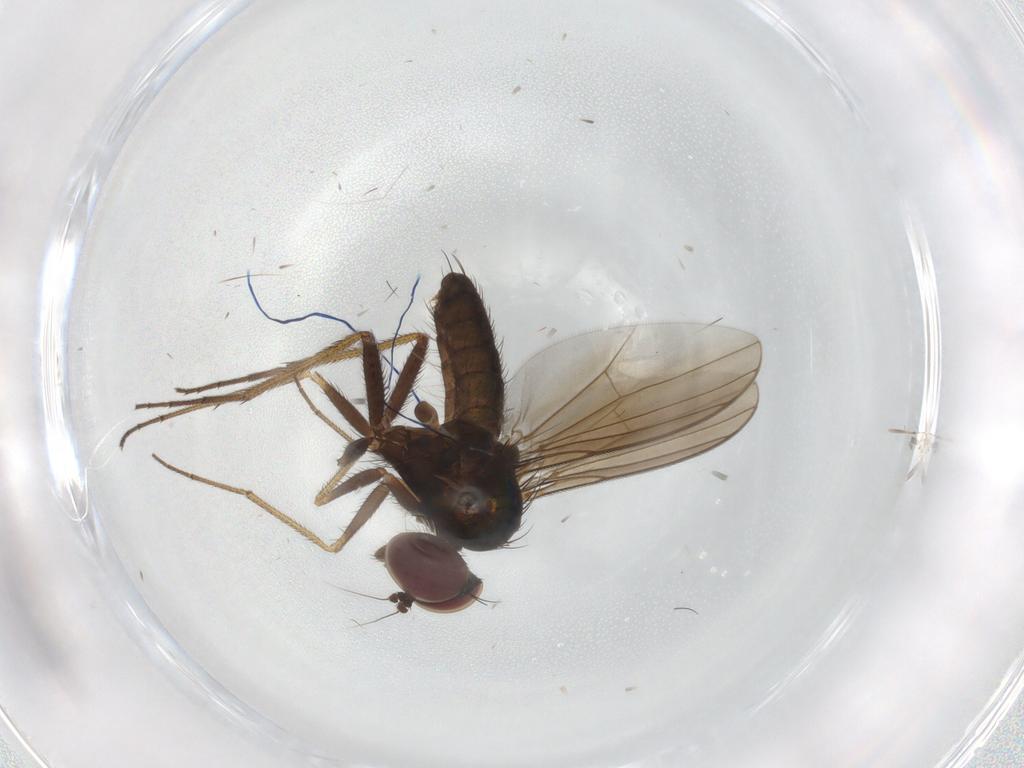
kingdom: Animalia
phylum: Arthropoda
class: Insecta
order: Diptera
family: Dolichopodidae
